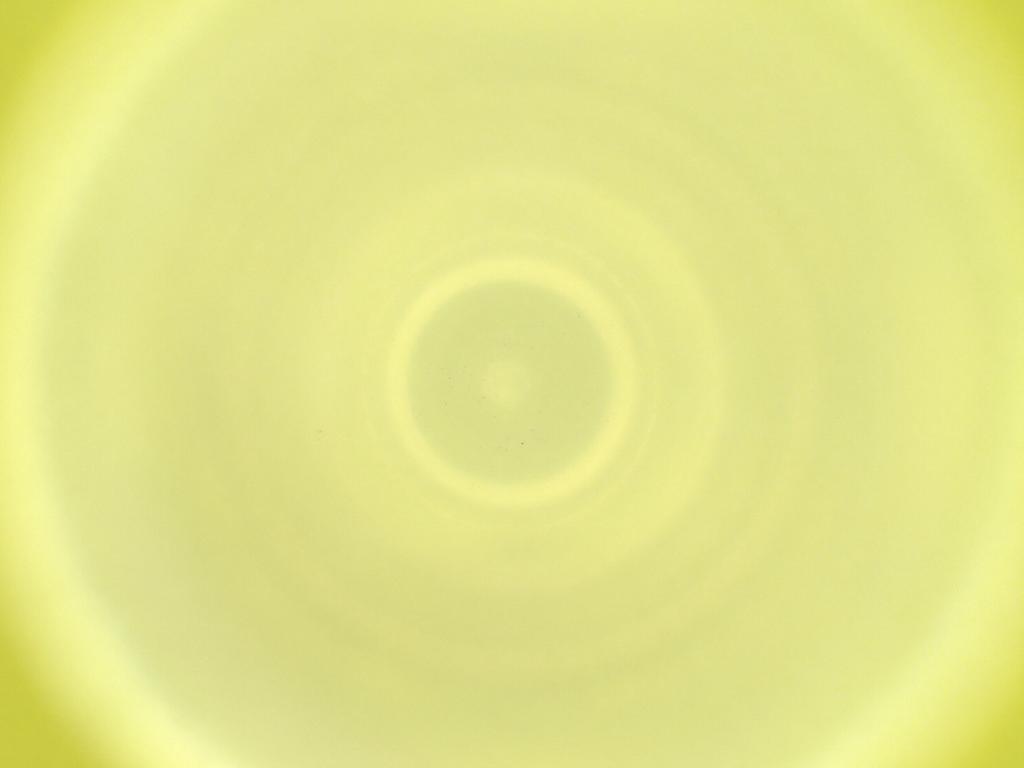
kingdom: Animalia
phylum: Arthropoda
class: Insecta
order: Diptera
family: Cecidomyiidae
